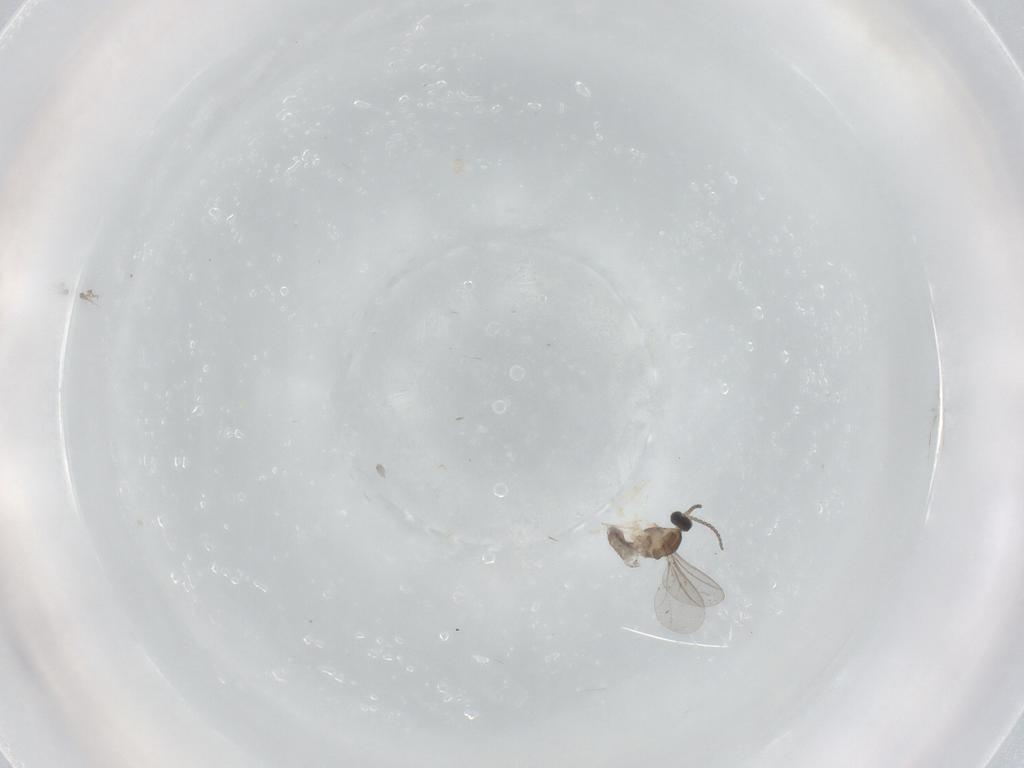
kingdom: Animalia
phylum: Arthropoda
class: Insecta
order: Diptera
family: Cecidomyiidae
